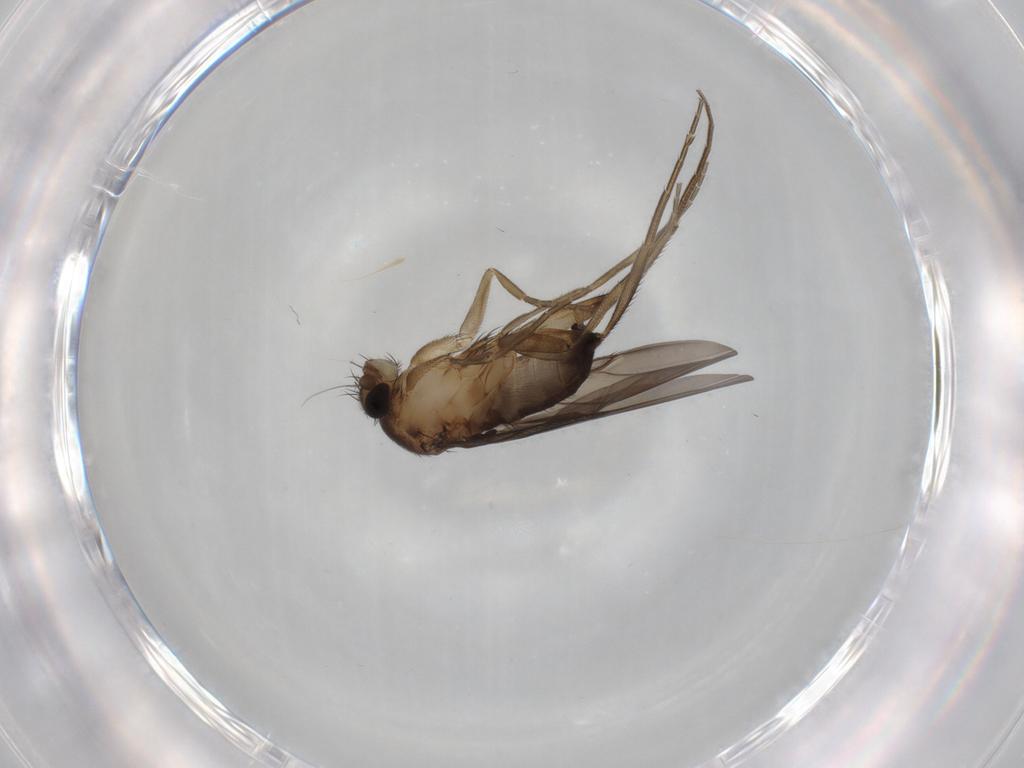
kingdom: Animalia
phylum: Arthropoda
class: Insecta
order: Diptera
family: Phoridae
